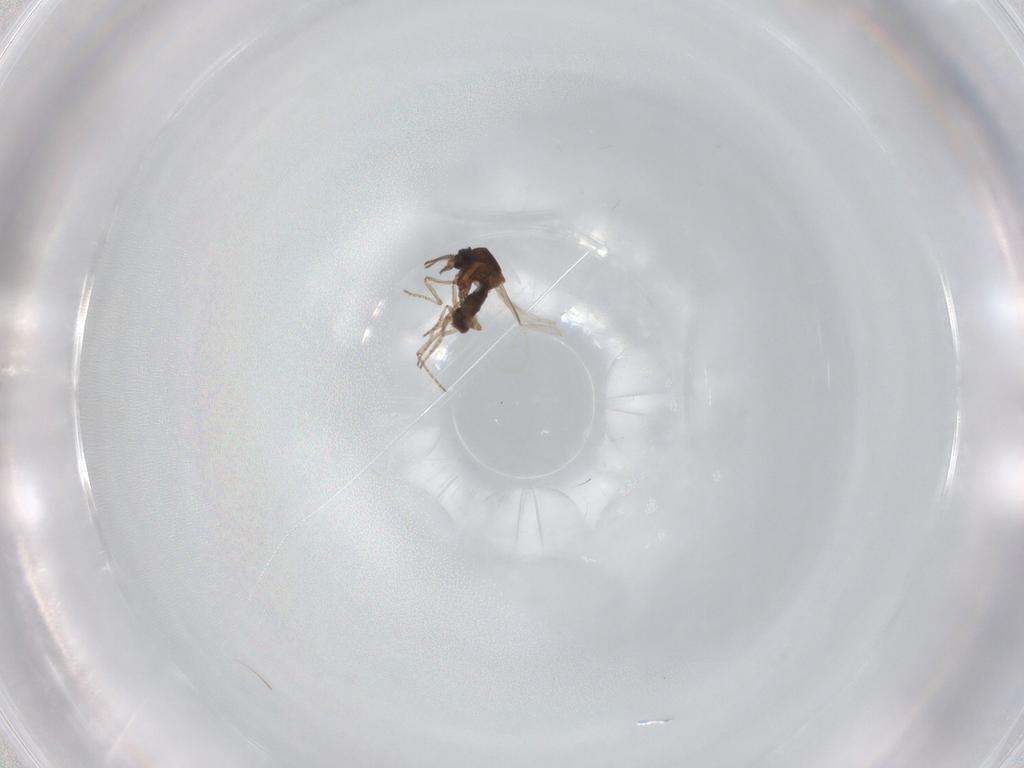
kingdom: Animalia
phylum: Arthropoda
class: Insecta
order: Diptera
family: Ceratopogonidae
